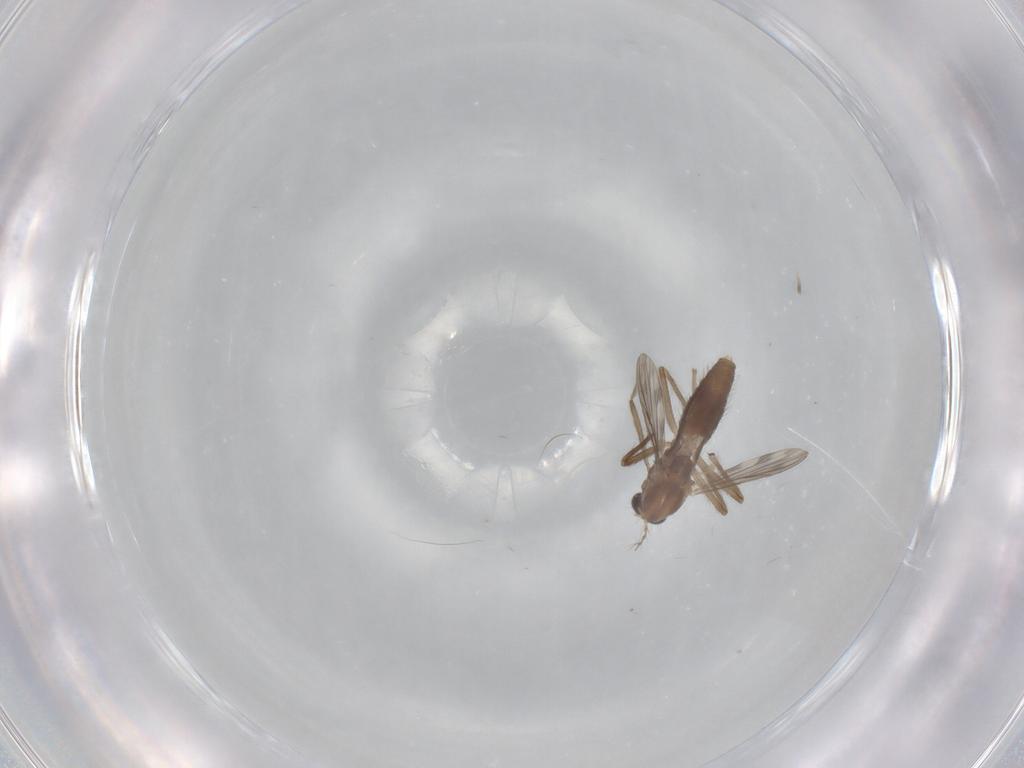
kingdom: Animalia
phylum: Arthropoda
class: Insecta
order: Diptera
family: Chironomidae
